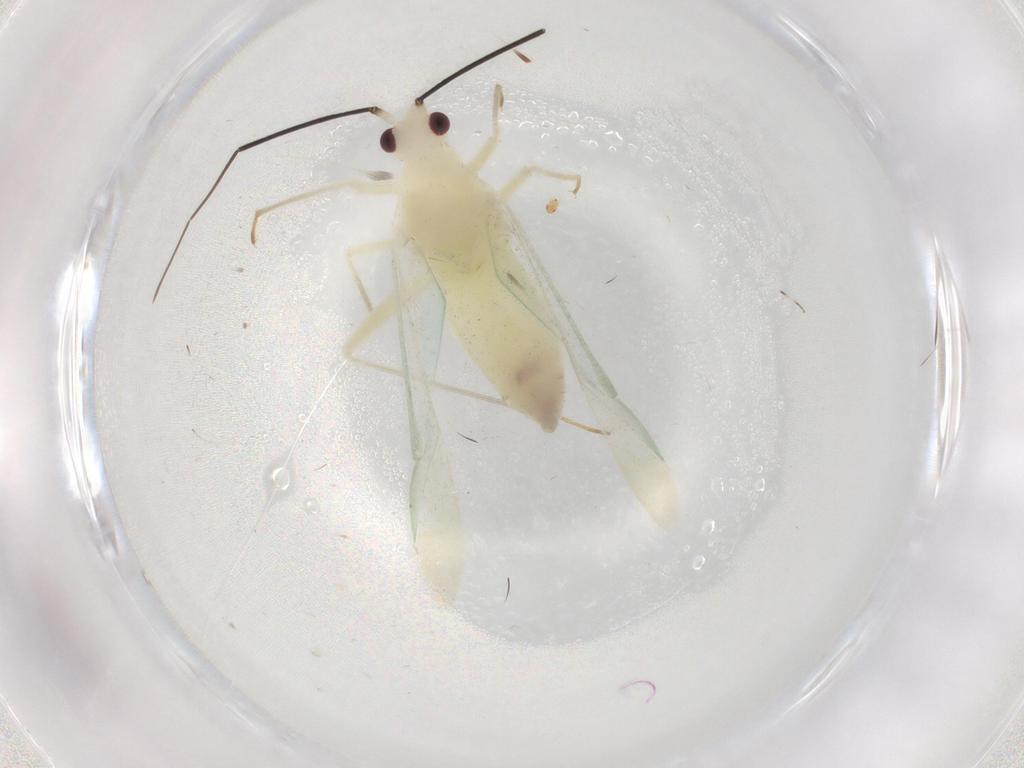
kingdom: Animalia
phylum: Arthropoda
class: Insecta
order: Hemiptera
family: Miridae
